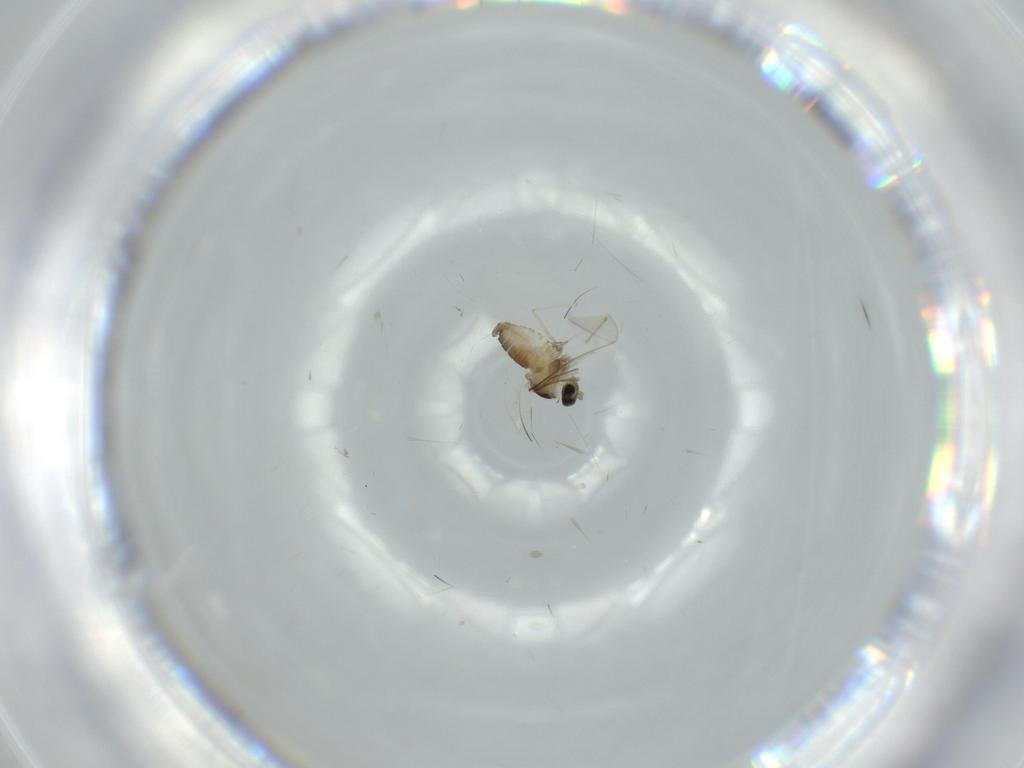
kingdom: Animalia
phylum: Arthropoda
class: Insecta
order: Diptera
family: Cecidomyiidae
